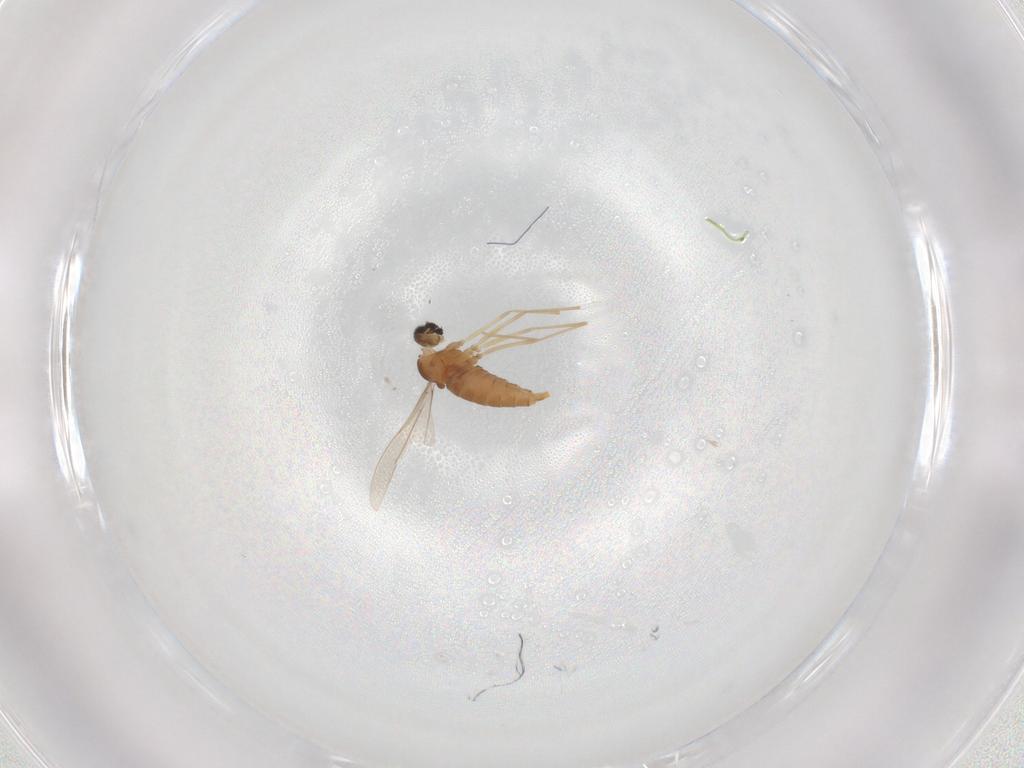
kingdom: Animalia
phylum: Arthropoda
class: Insecta
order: Diptera
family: Cecidomyiidae
